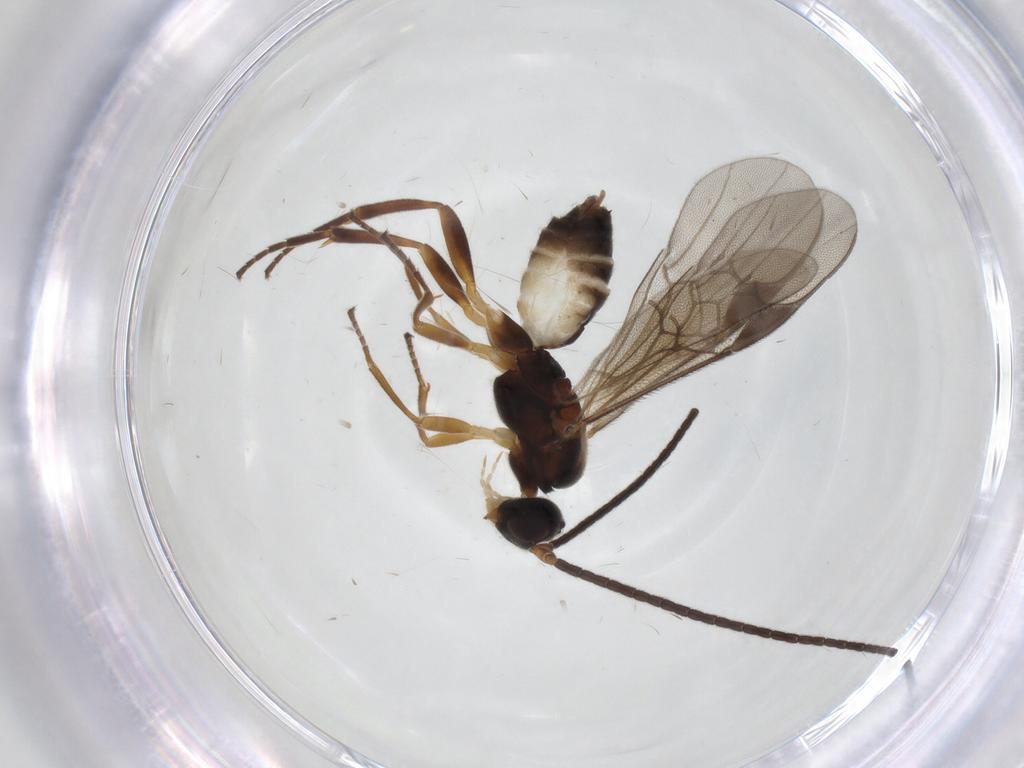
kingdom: Animalia
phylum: Arthropoda
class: Insecta
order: Hymenoptera
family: Braconidae
